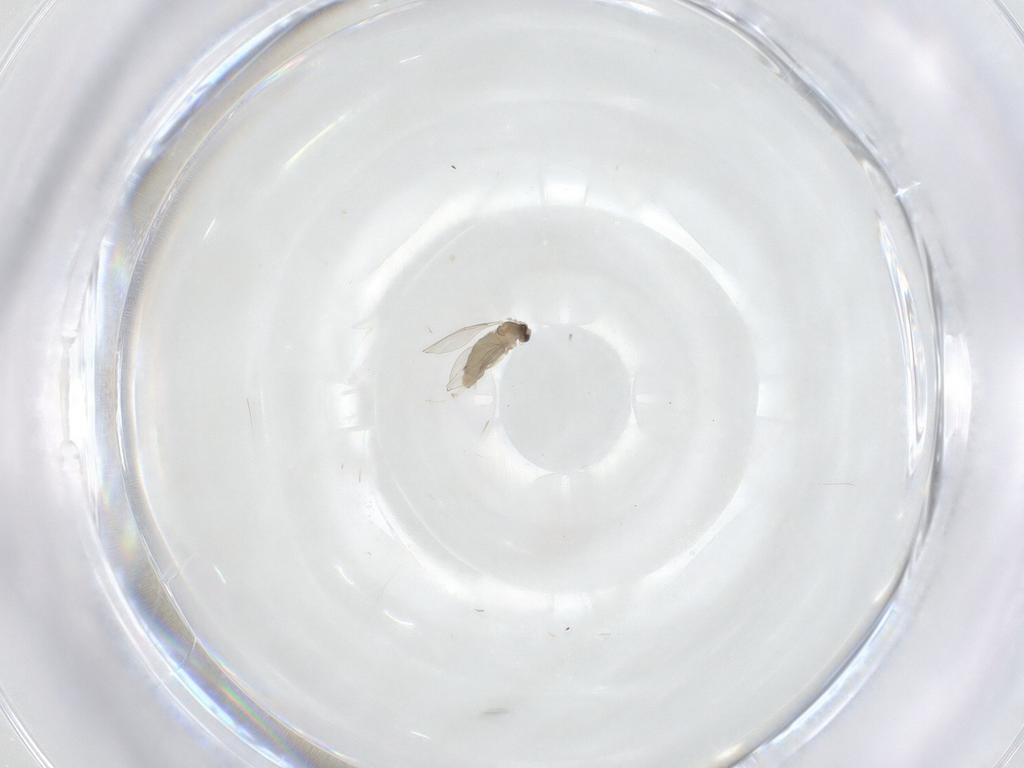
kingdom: Animalia
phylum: Arthropoda
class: Insecta
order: Diptera
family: Cecidomyiidae
